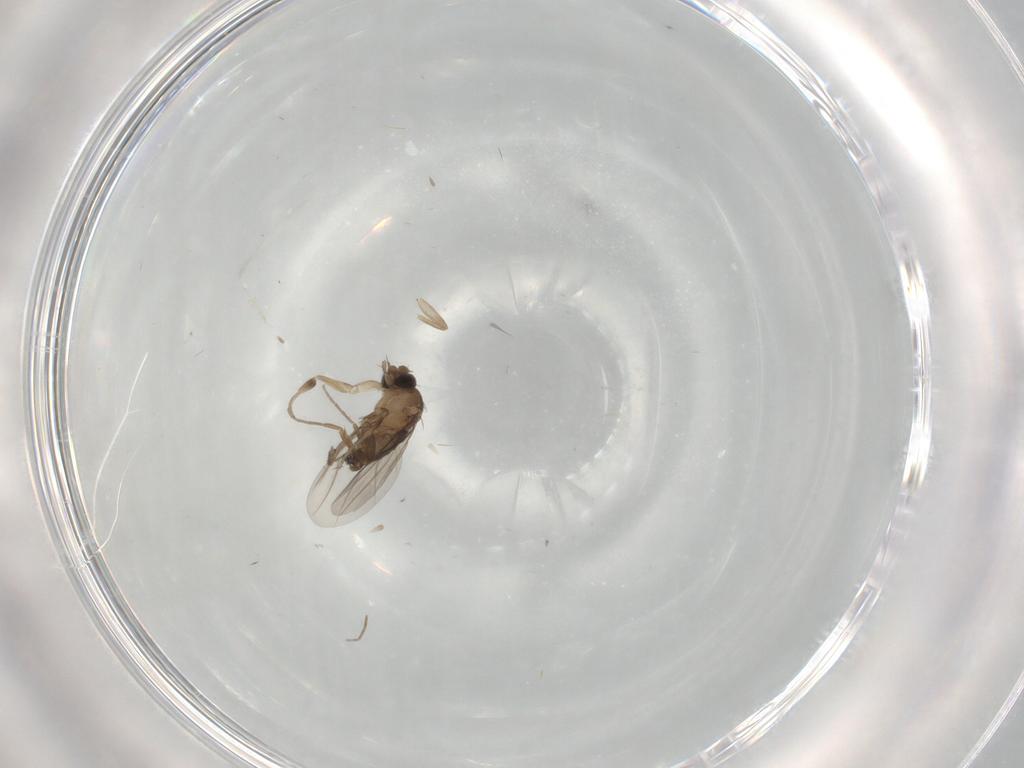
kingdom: Animalia
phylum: Arthropoda
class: Insecta
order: Diptera
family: Phoridae
